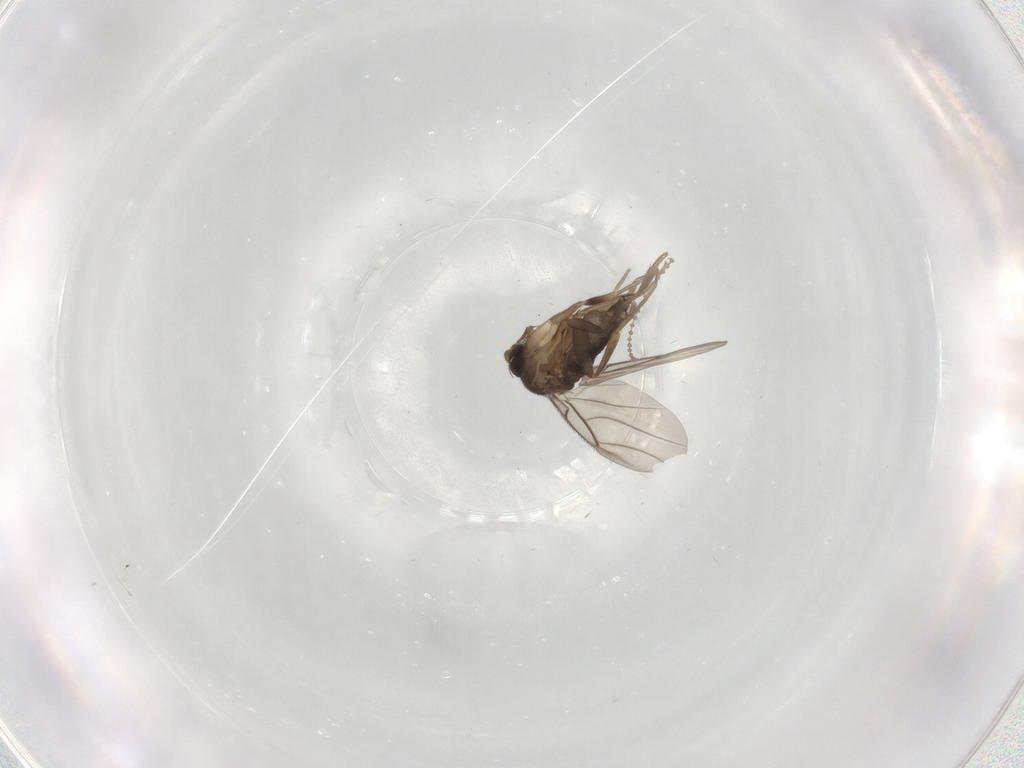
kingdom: Animalia
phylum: Arthropoda
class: Insecta
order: Diptera
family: Phoridae
